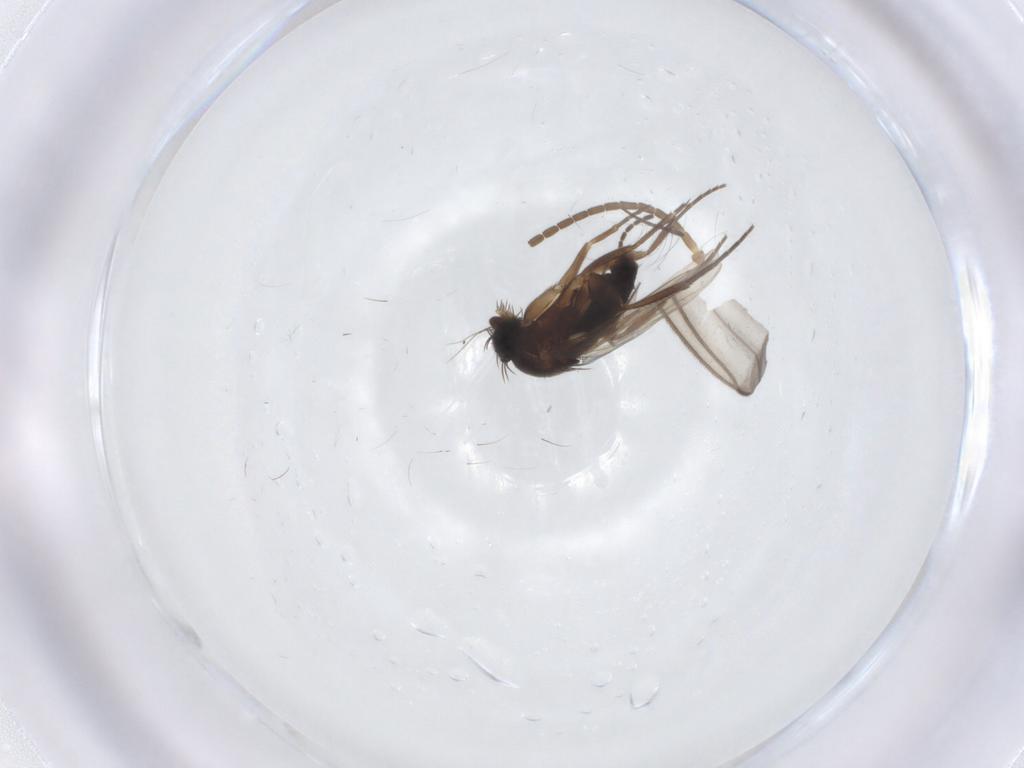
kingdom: Animalia
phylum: Arthropoda
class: Insecta
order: Diptera
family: Phoridae
